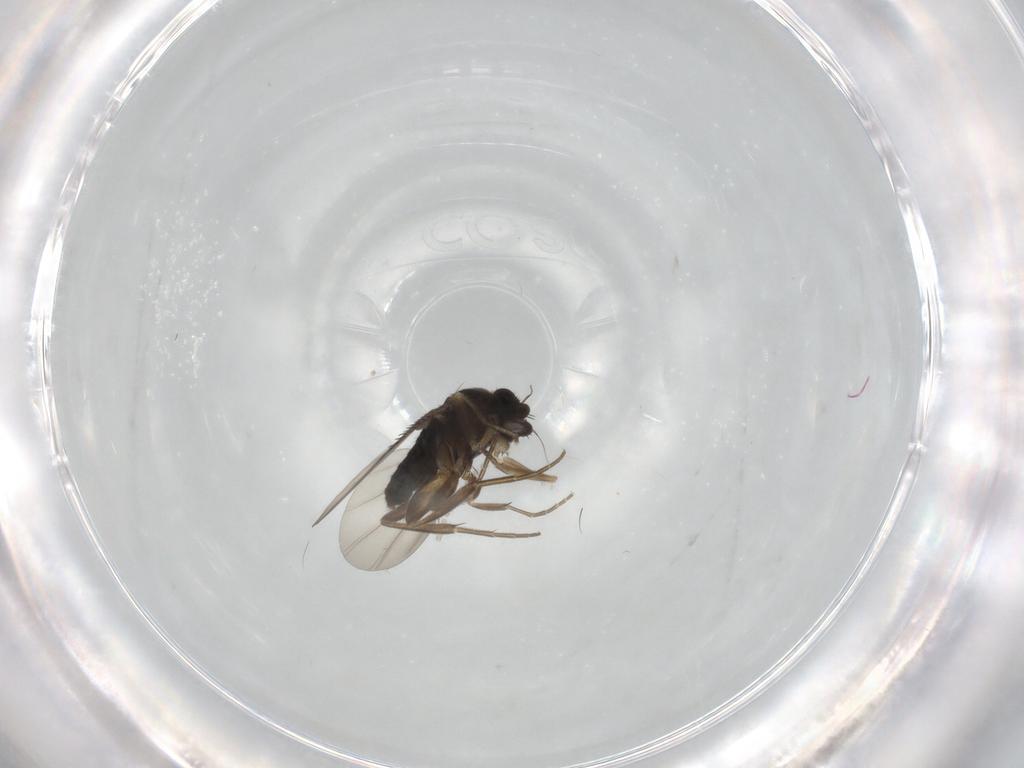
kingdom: Animalia
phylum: Arthropoda
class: Insecta
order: Diptera
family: Phoridae
